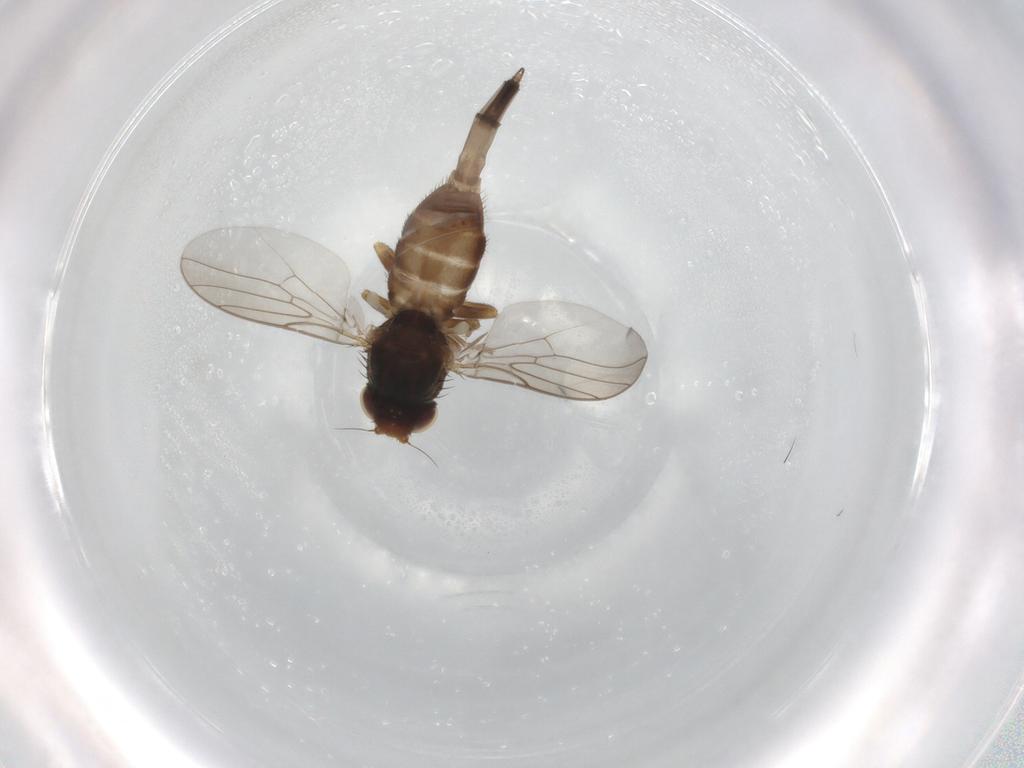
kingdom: Animalia
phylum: Arthropoda
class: Insecta
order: Diptera
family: Chloropidae
